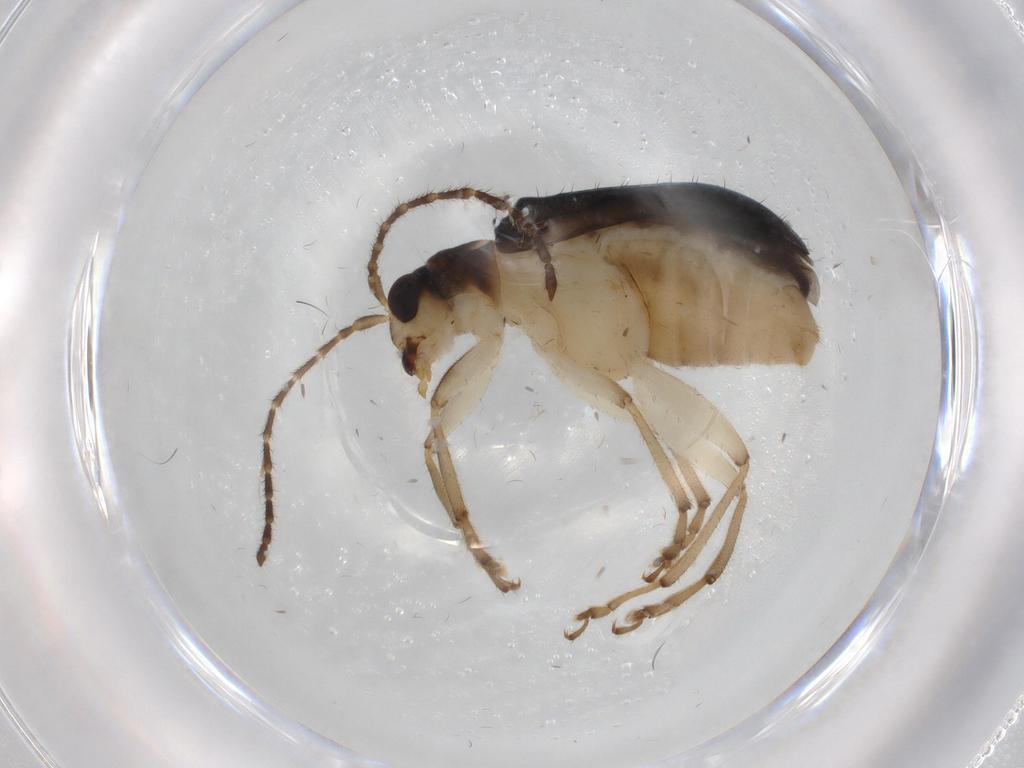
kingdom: Animalia
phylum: Arthropoda
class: Insecta
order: Coleoptera
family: Chrysomelidae
